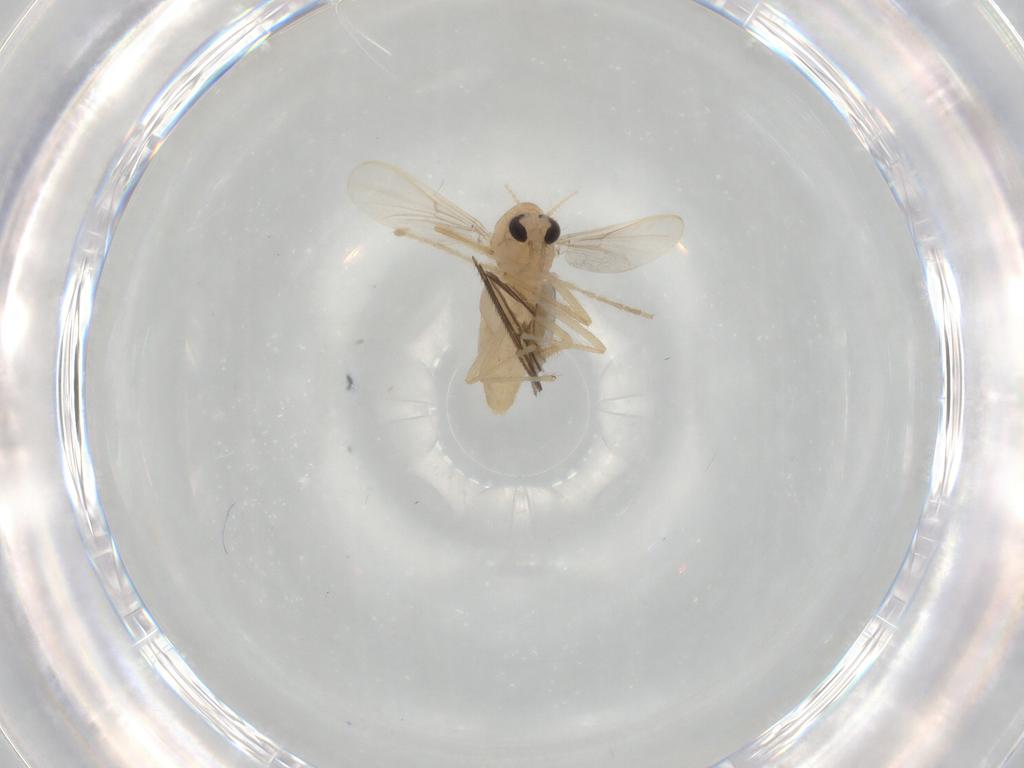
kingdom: Animalia
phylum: Arthropoda
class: Insecta
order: Diptera
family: Chironomidae
